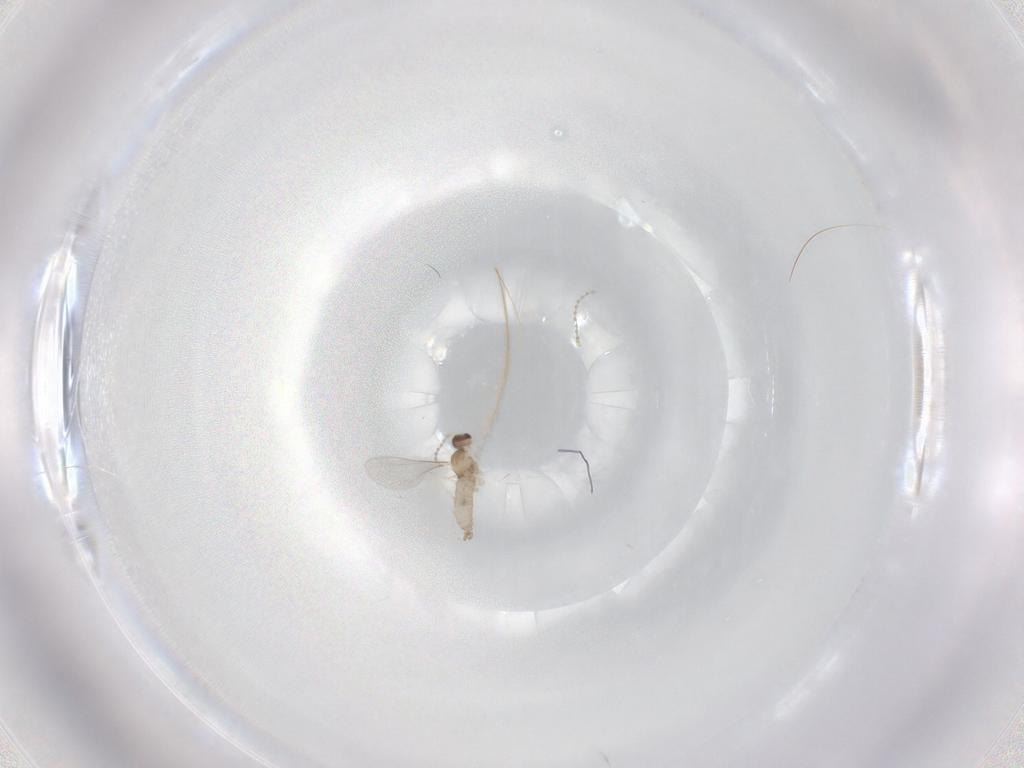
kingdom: Animalia
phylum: Arthropoda
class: Insecta
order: Diptera
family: Cecidomyiidae
